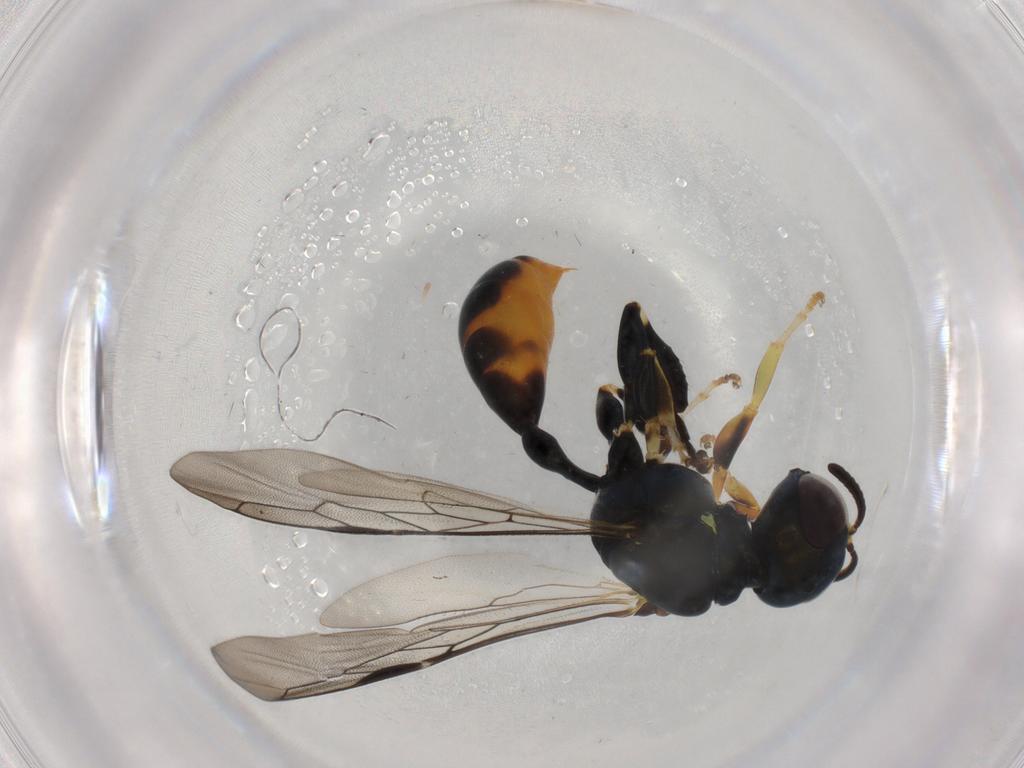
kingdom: Animalia
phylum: Arthropoda
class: Insecta
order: Hymenoptera
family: Crabronidae
